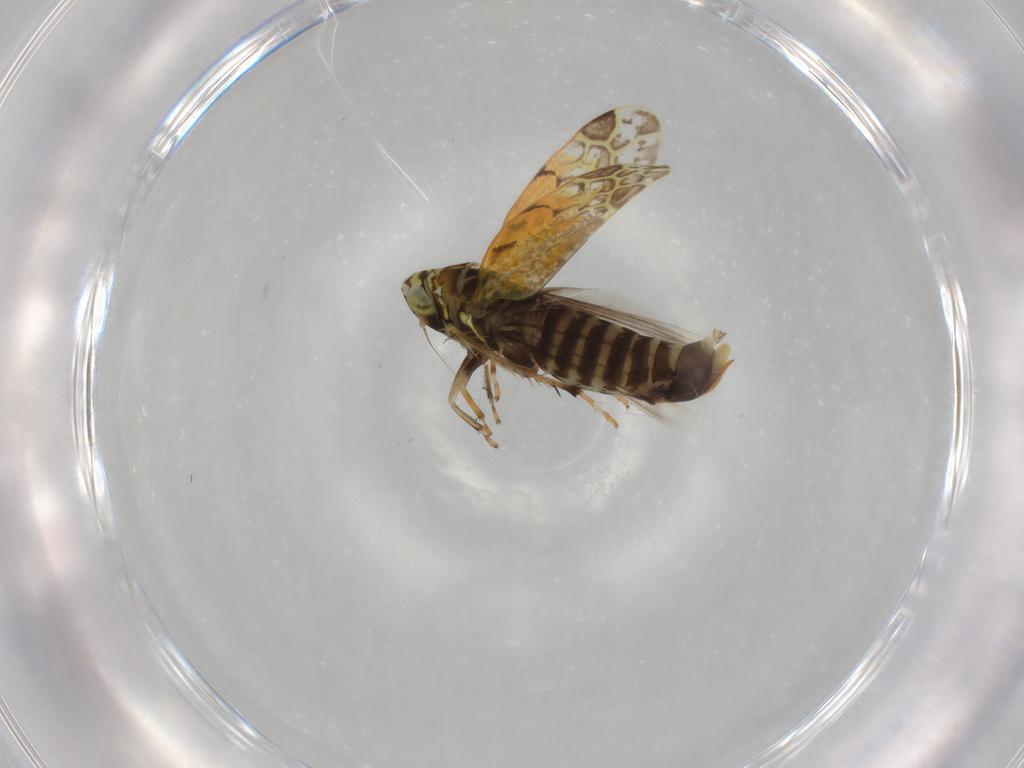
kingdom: Animalia
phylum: Arthropoda
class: Insecta
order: Hemiptera
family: Cicadellidae
